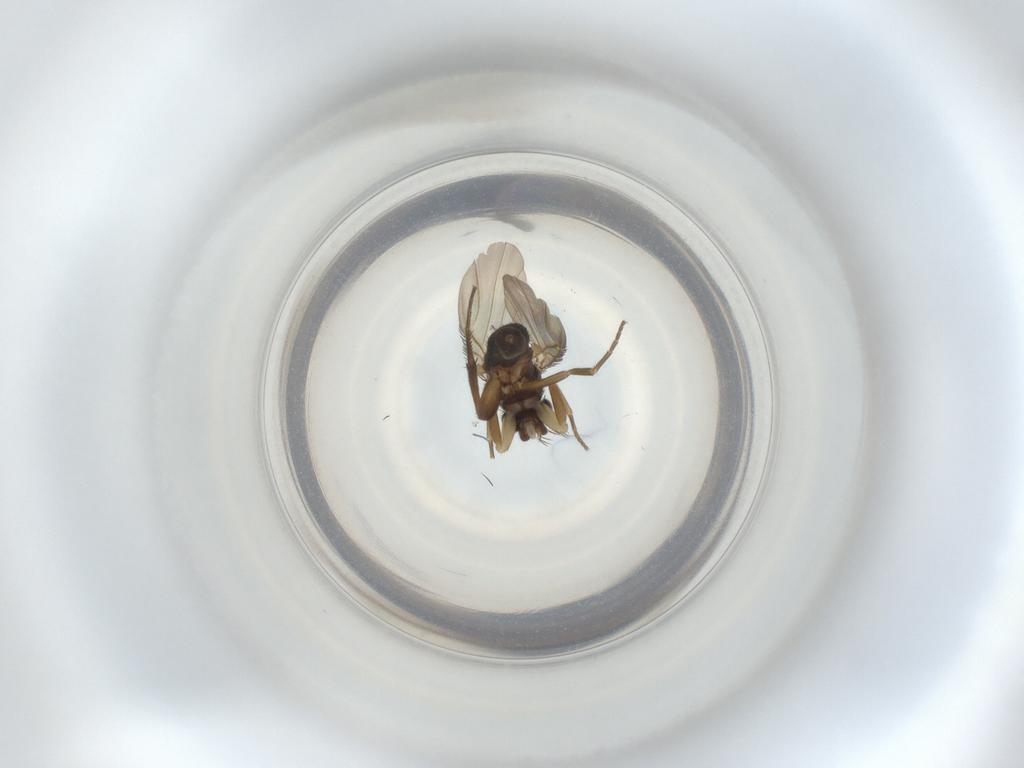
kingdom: Animalia
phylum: Arthropoda
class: Insecta
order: Diptera
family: Phoridae
